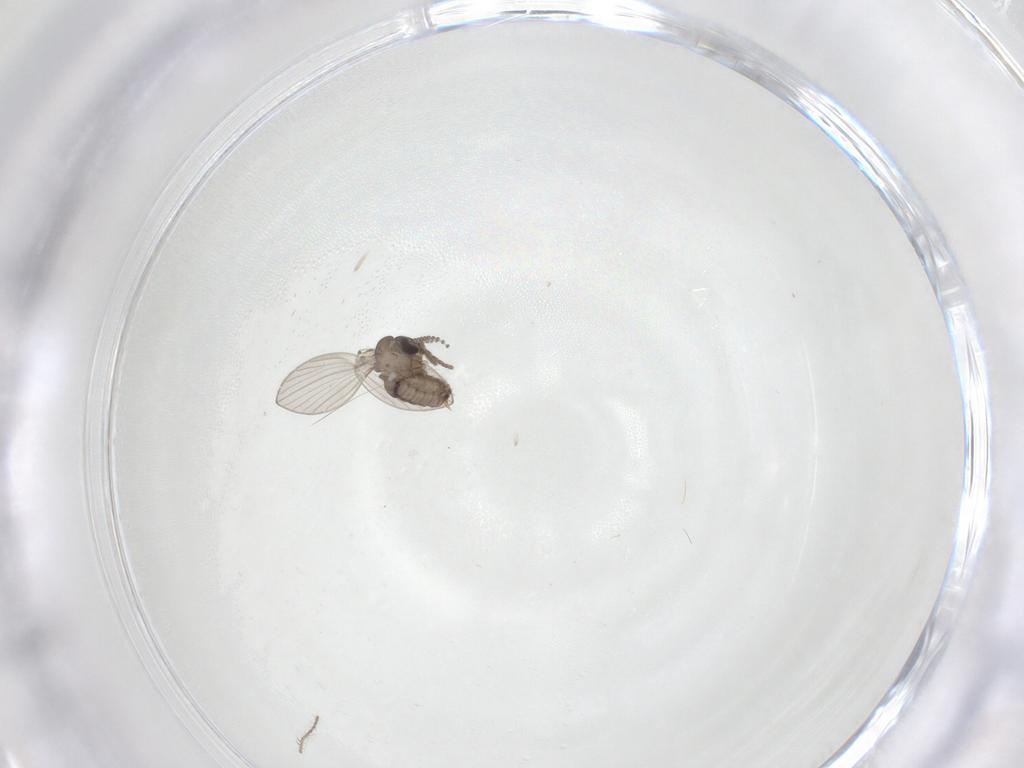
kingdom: Animalia
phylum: Arthropoda
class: Insecta
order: Diptera
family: Psychodidae
